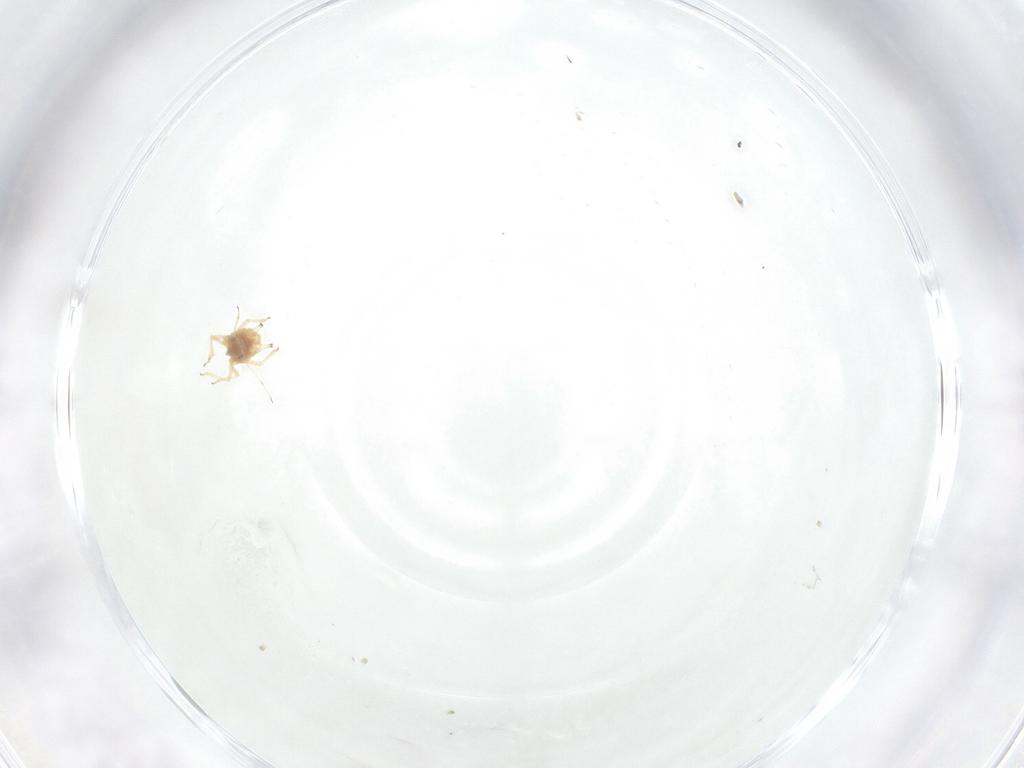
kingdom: Animalia
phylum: Arthropoda
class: Insecta
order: Hemiptera
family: Aphididae
